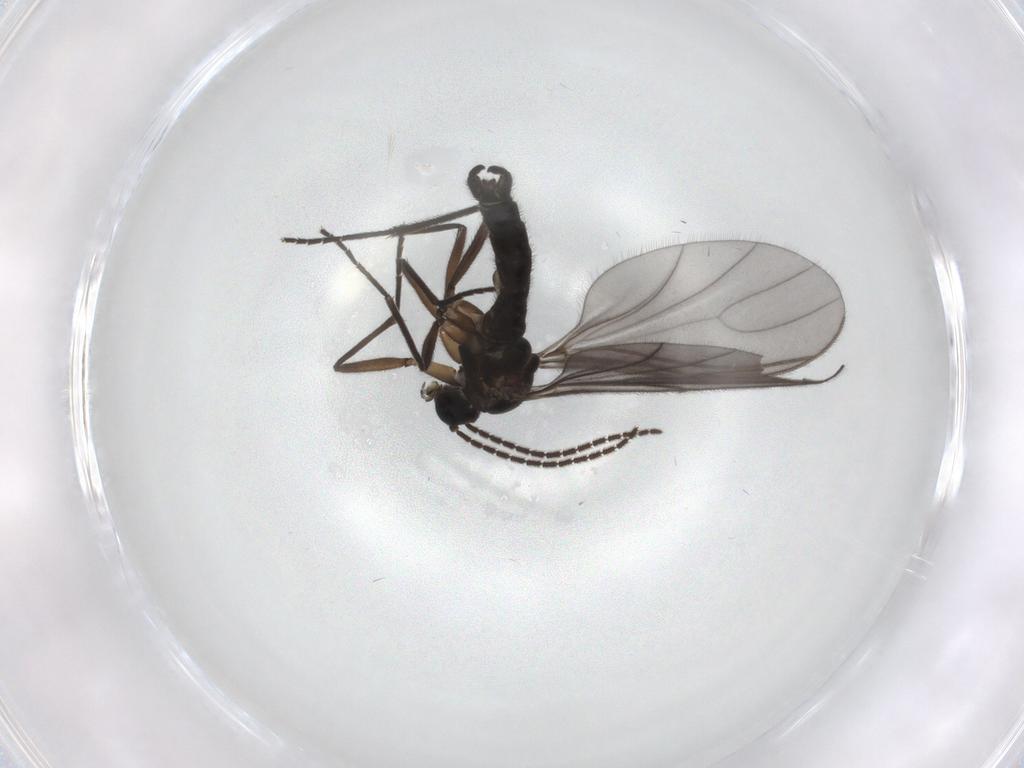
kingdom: Animalia
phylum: Arthropoda
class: Insecta
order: Diptera
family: Sciaridae
